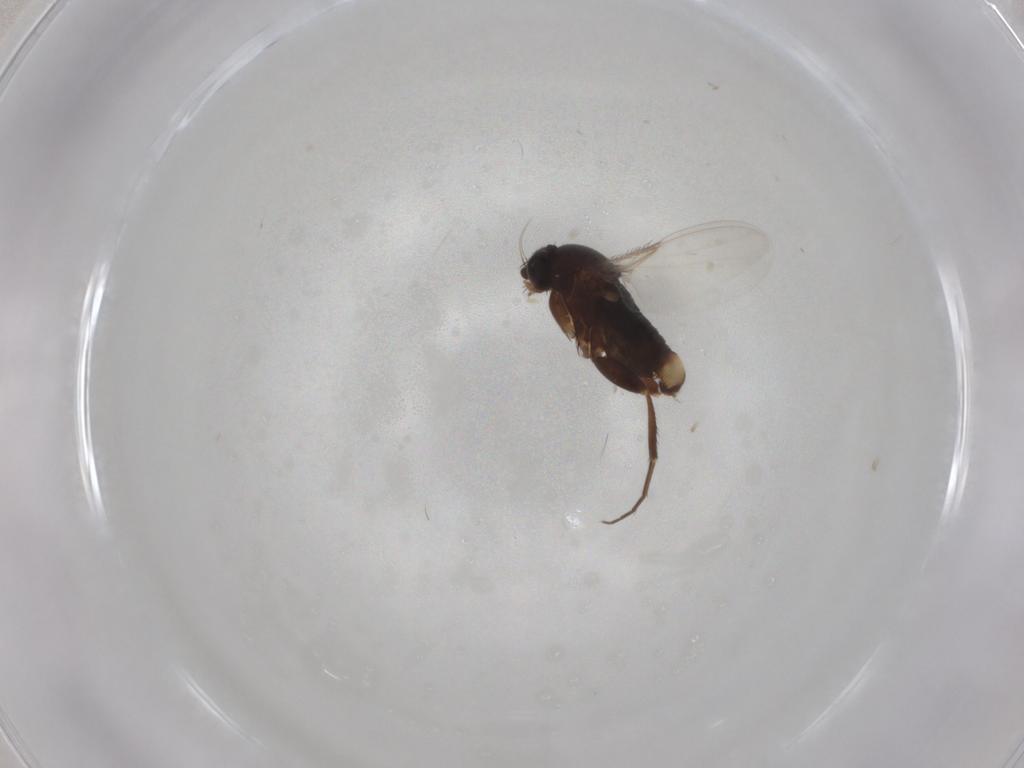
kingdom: Animalia
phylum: Arthropoda
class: Insecta
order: Diptera
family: Phoridae
